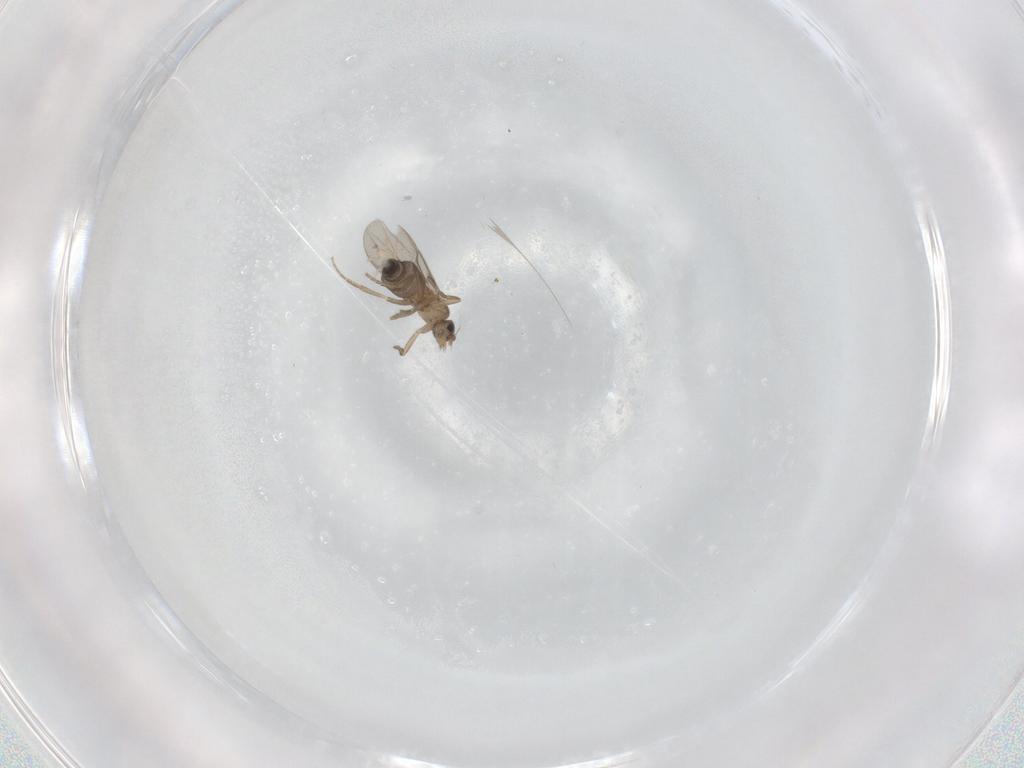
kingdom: Animalia
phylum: Arthropoda
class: Insecta
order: Diptera
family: Phoridae
